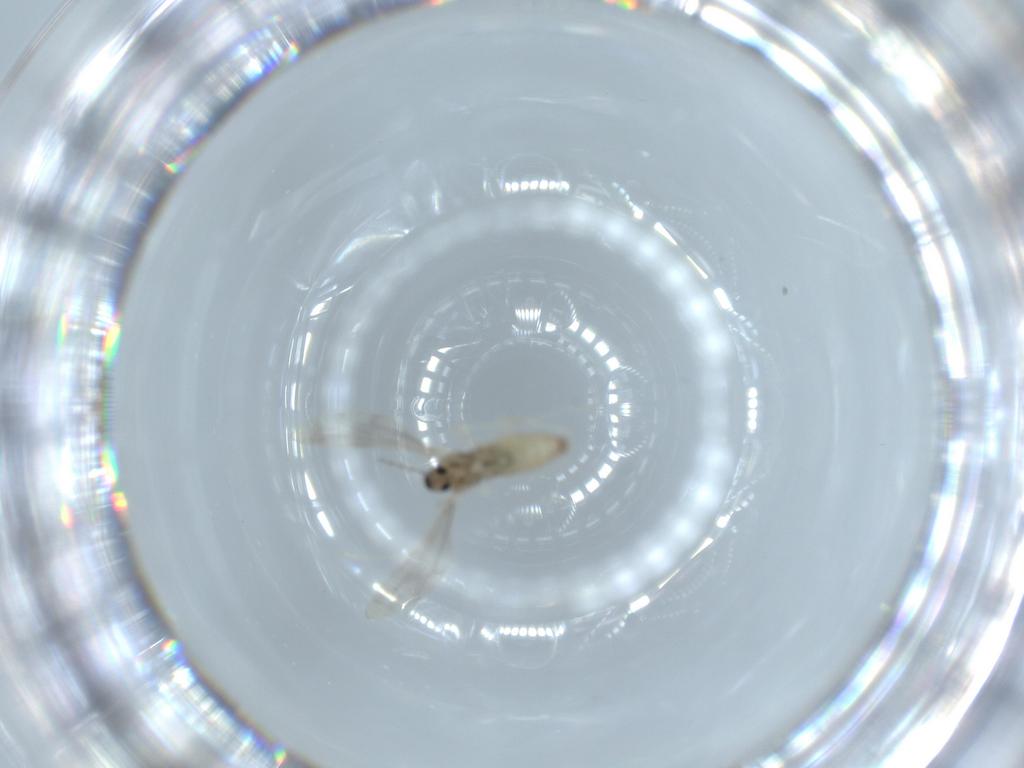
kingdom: Animalia
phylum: Arthropoda
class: Insecta
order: Diptera
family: Cecidomyiidae
